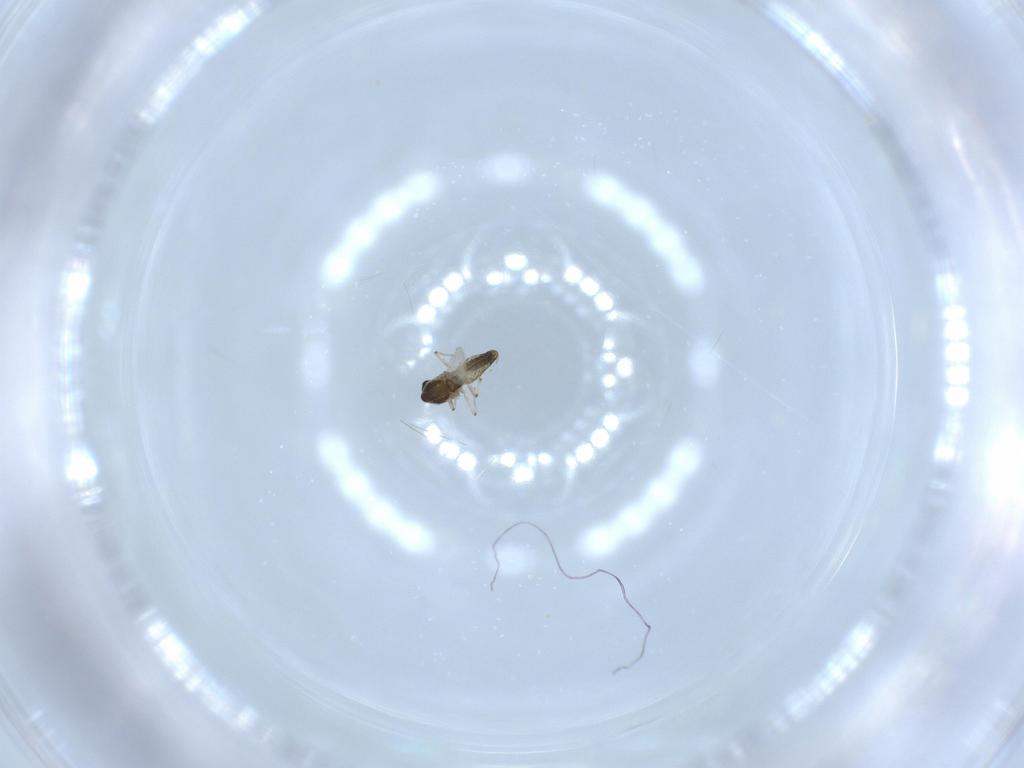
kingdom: Animalia
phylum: Arthropoda
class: Insecta
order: Diptera
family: Chironomidae
